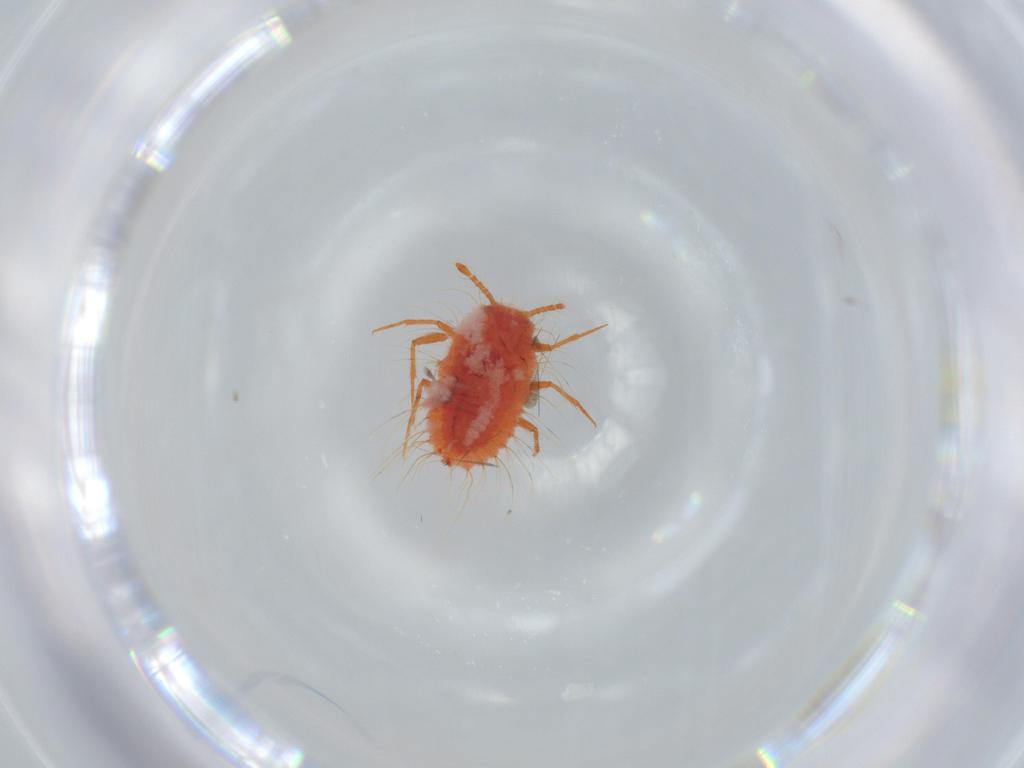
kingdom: Animalia
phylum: Arthropoda
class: Insecta
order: Hemiptera
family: Coccoidea_incertae_sedis
